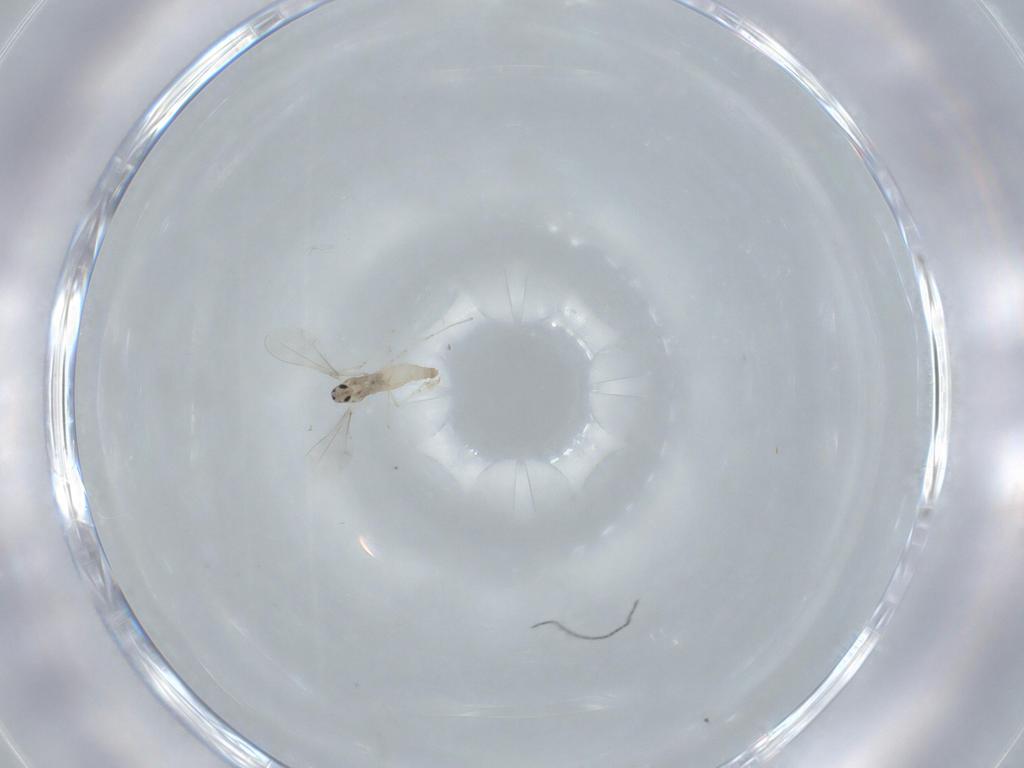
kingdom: Animalia
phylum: Arthropoda
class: Insecta
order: Diptera
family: Cecidomyiidae
